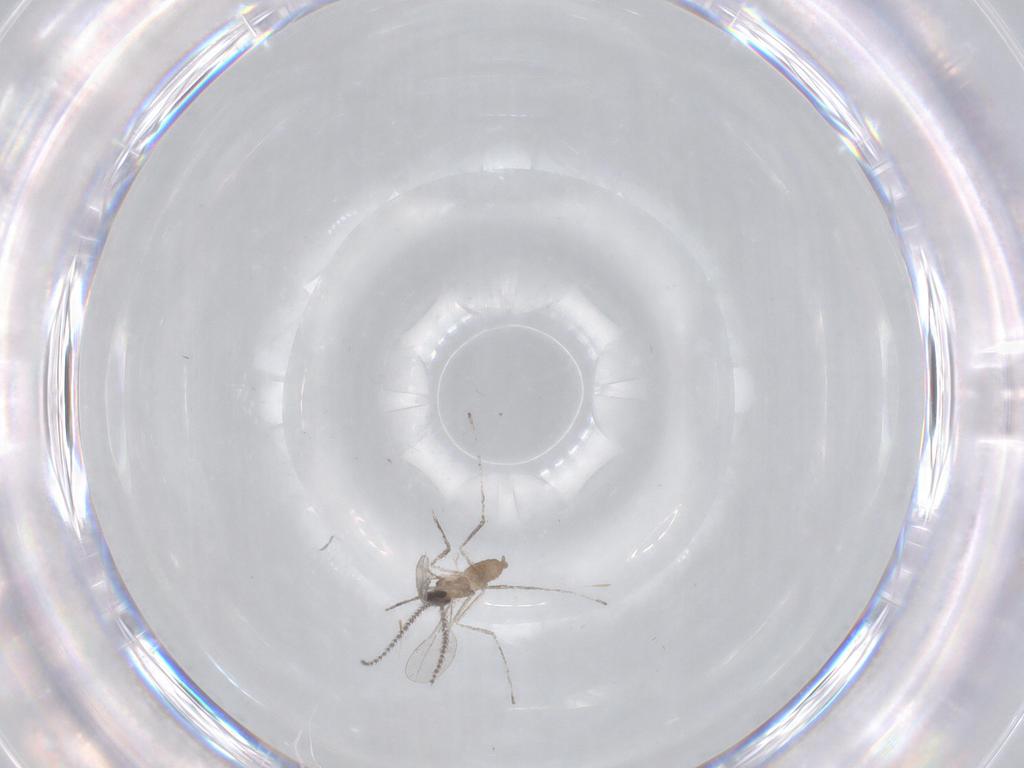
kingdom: Animalia
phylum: Arthropoda
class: Insecta
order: Diptera
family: Cecidomyiidae
